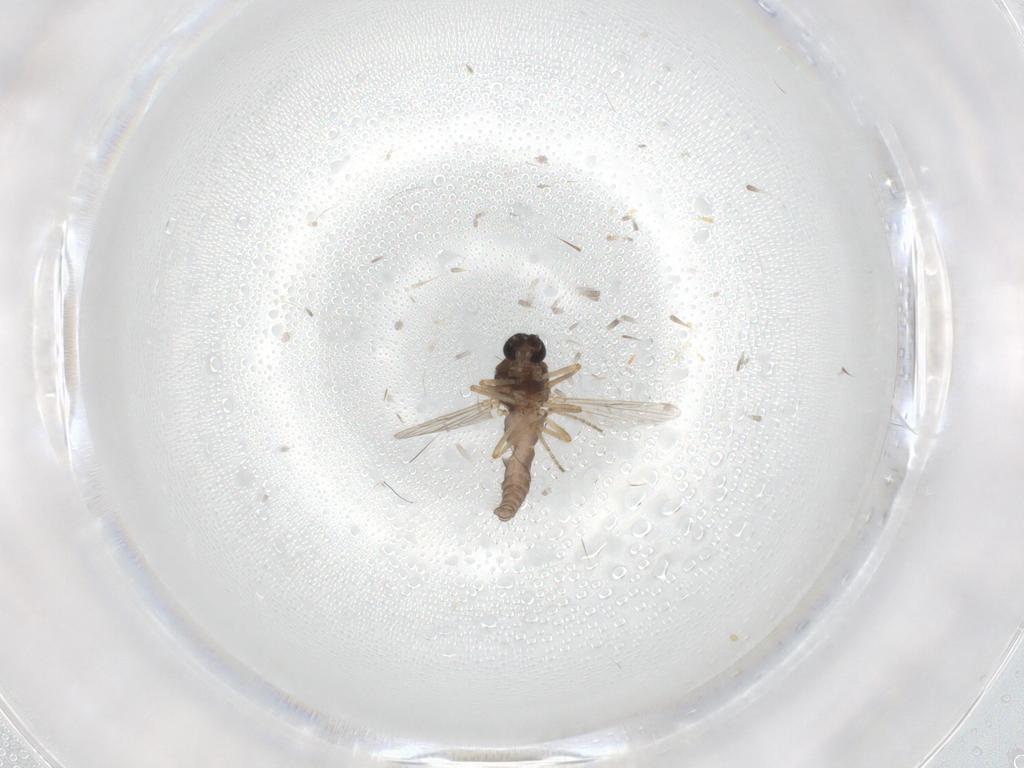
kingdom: Animalia
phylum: Arthropoda
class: Insecta
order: Diptera
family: Ceratopogonidae
